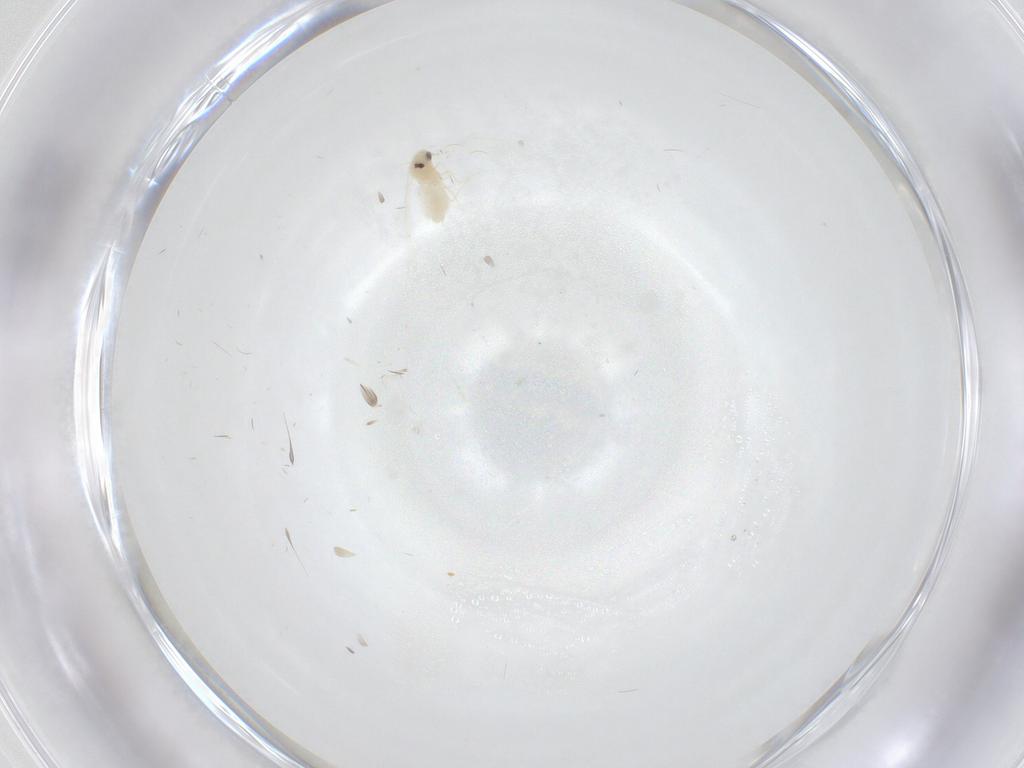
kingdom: Animalia
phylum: Arthropoda
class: Insecta
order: Hemiptera
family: Aleyrodidae
